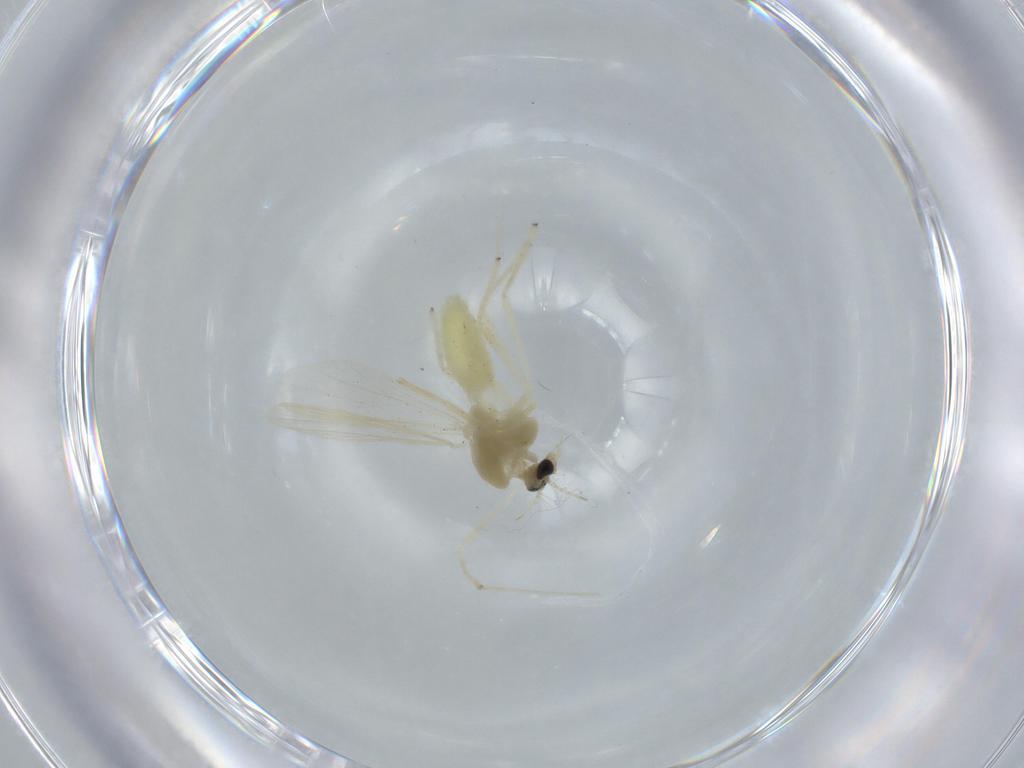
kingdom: Animalia
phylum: Arthropoda
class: Insecta
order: Diptera
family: Chironomidae
